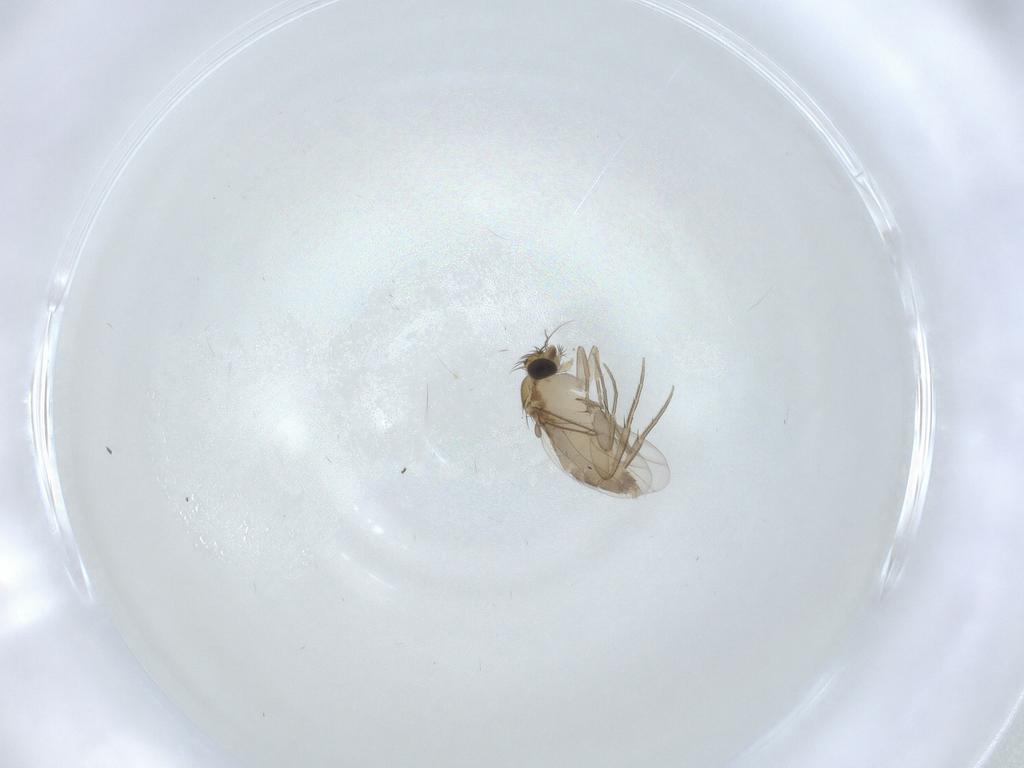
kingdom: Animalia
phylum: Arthropoda
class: Insecta
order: Diptera
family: Phoridae
